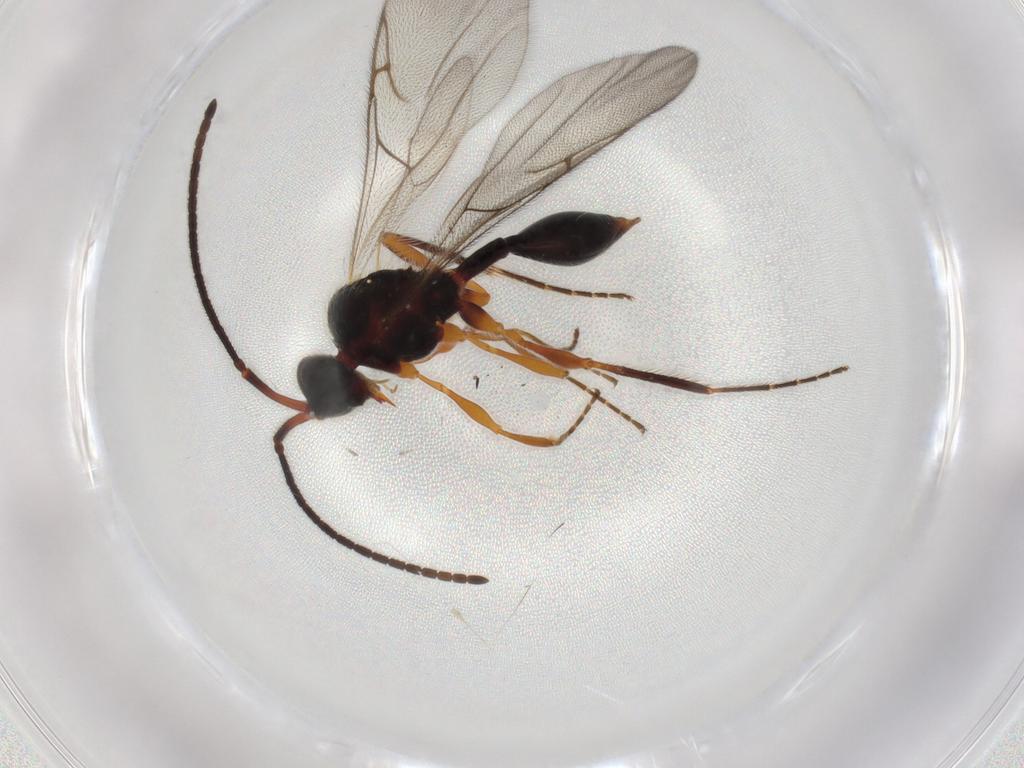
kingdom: Animalia
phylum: Arthropoda
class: Insecta
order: Hymenoptera
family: Diapriidae
